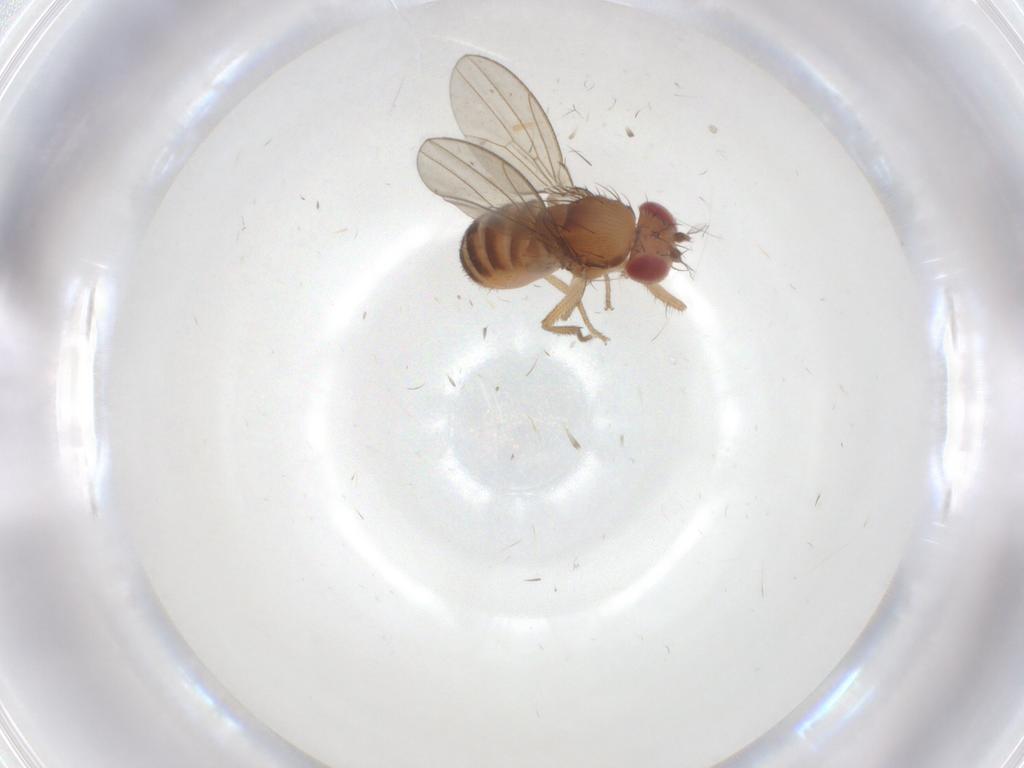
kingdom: Animalia
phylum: Arthropoda
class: Insecta
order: Diptera
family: Drosophilidae
